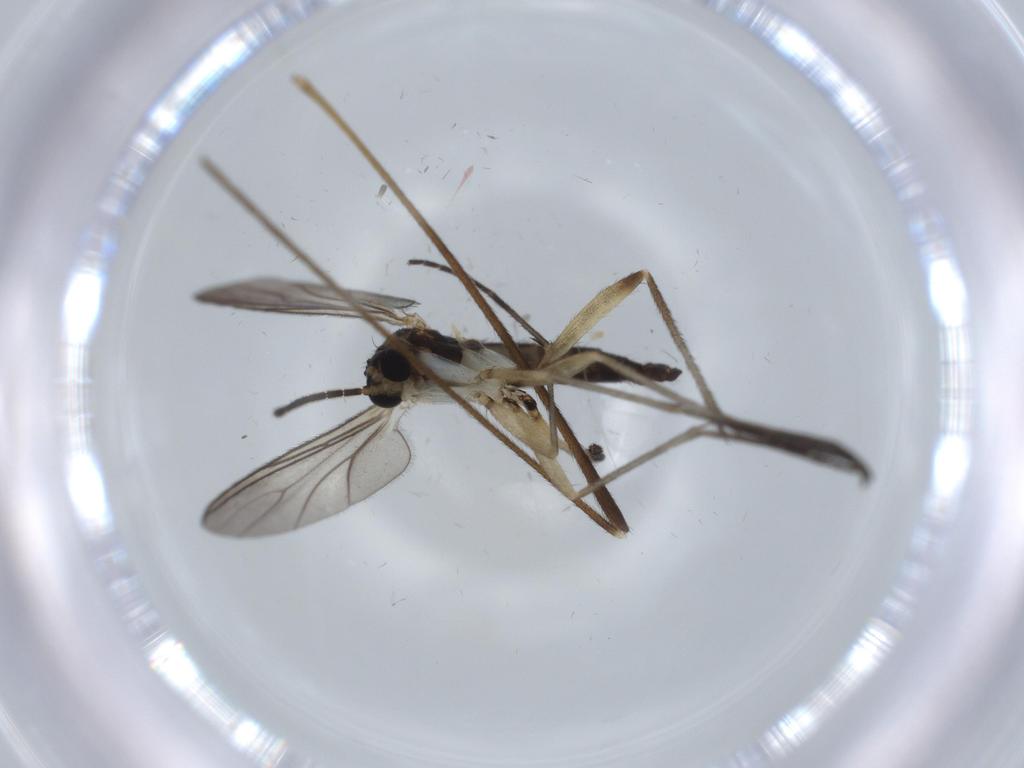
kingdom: Animalia
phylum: Arthropoda
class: Insecta
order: Diptera
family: Sciaridae
